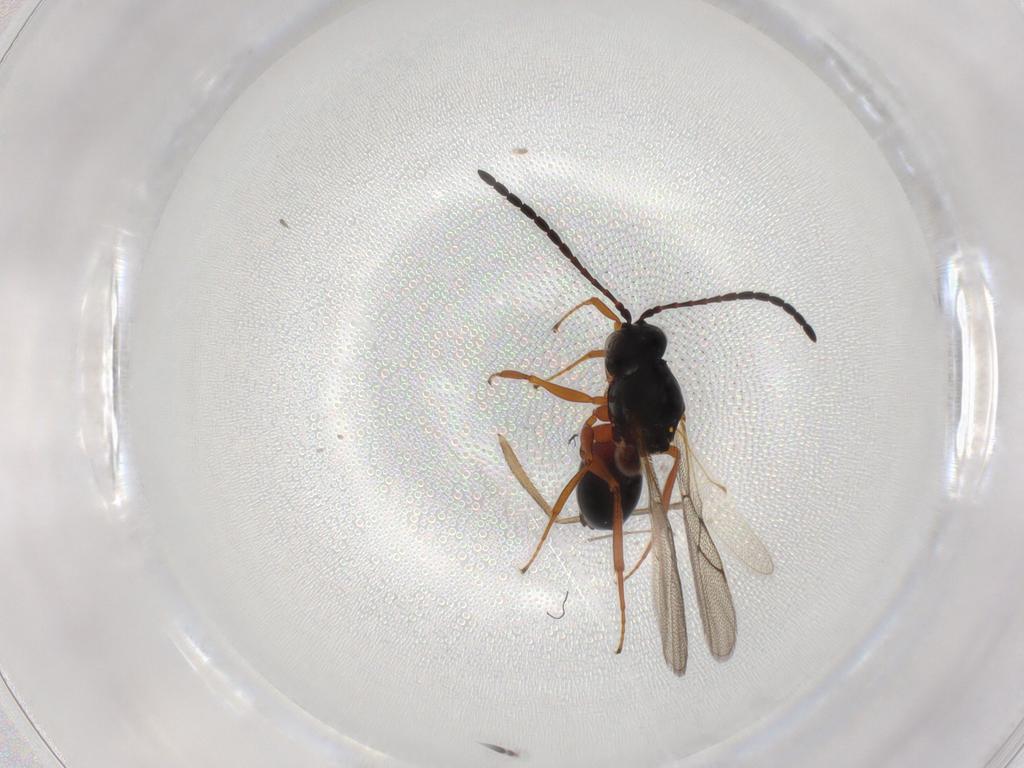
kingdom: Animalia
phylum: Arthropoda
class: Insecta
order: Hymenoptera
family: Figitidae
